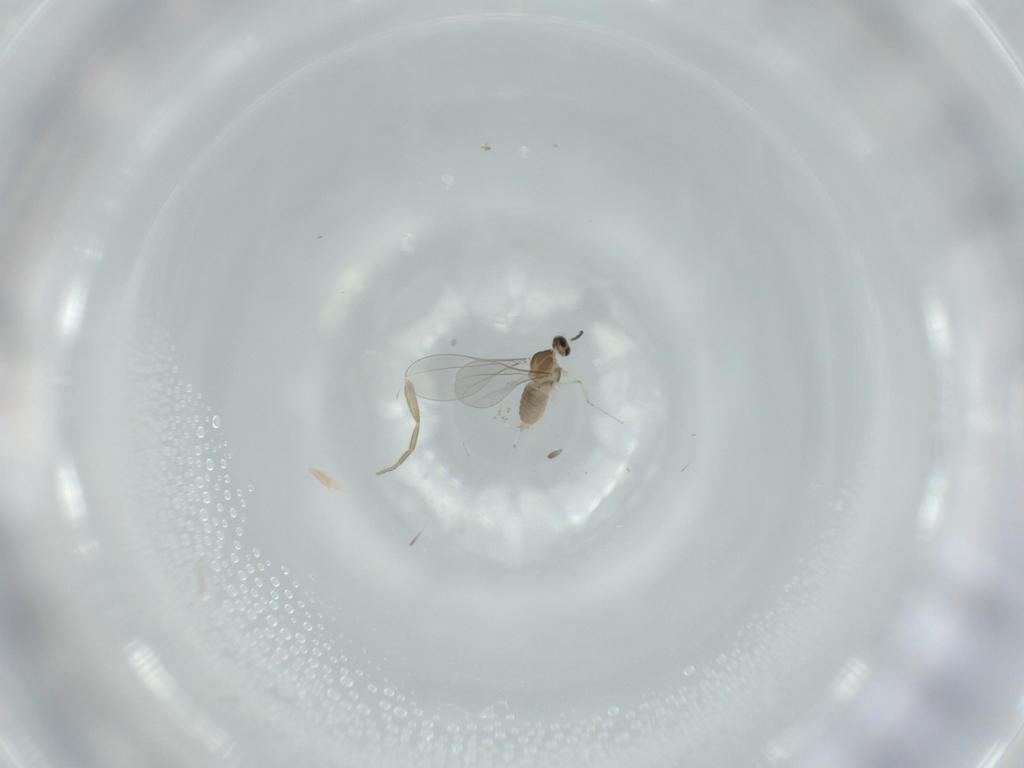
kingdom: Animalia
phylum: Arthropoda
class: Insecta
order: Diptera
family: Cecidomyiidae
